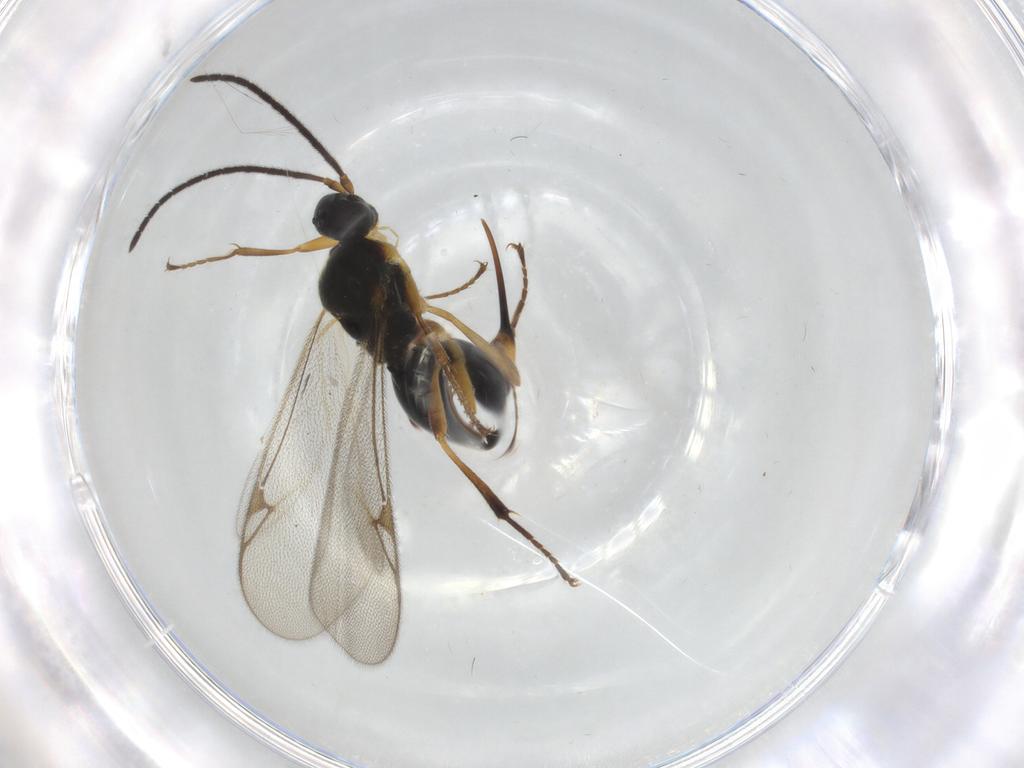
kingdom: Animalia
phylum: Arthropoda
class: Insecta
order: Hymenoptera
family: Proctotrupidae
